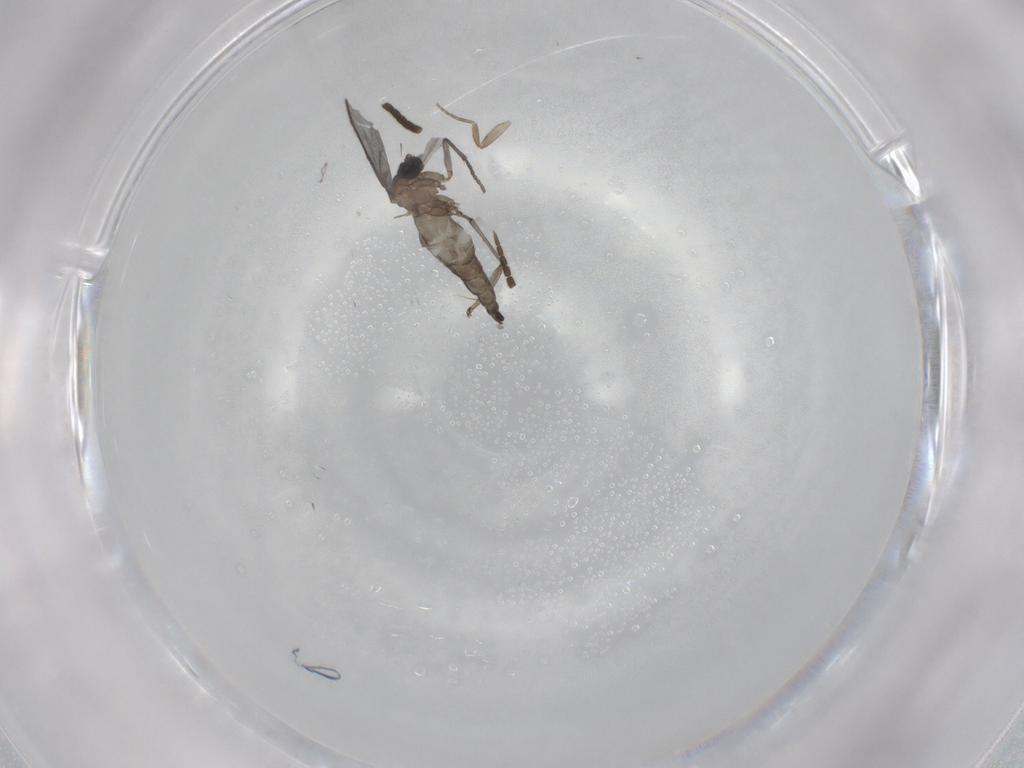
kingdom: Animalia
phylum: Arthropoda
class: Insecta
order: Diptera
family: Sciaridae
